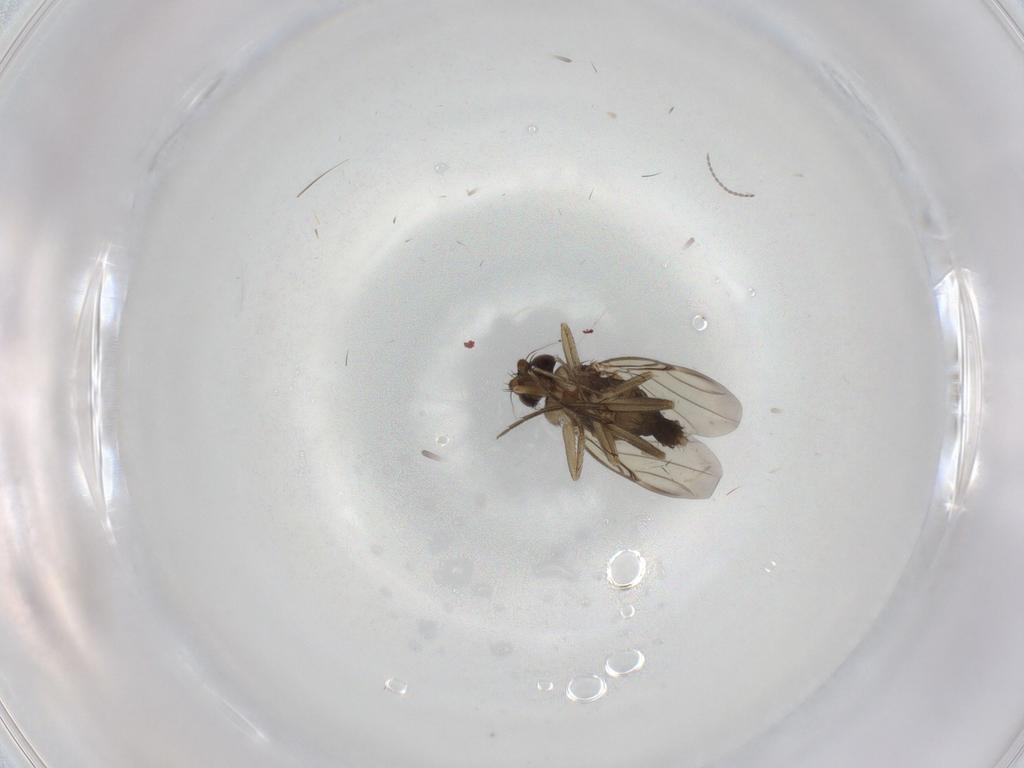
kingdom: Animalia
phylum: Arthropoda
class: Insecta
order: Diptera
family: Phoridae
